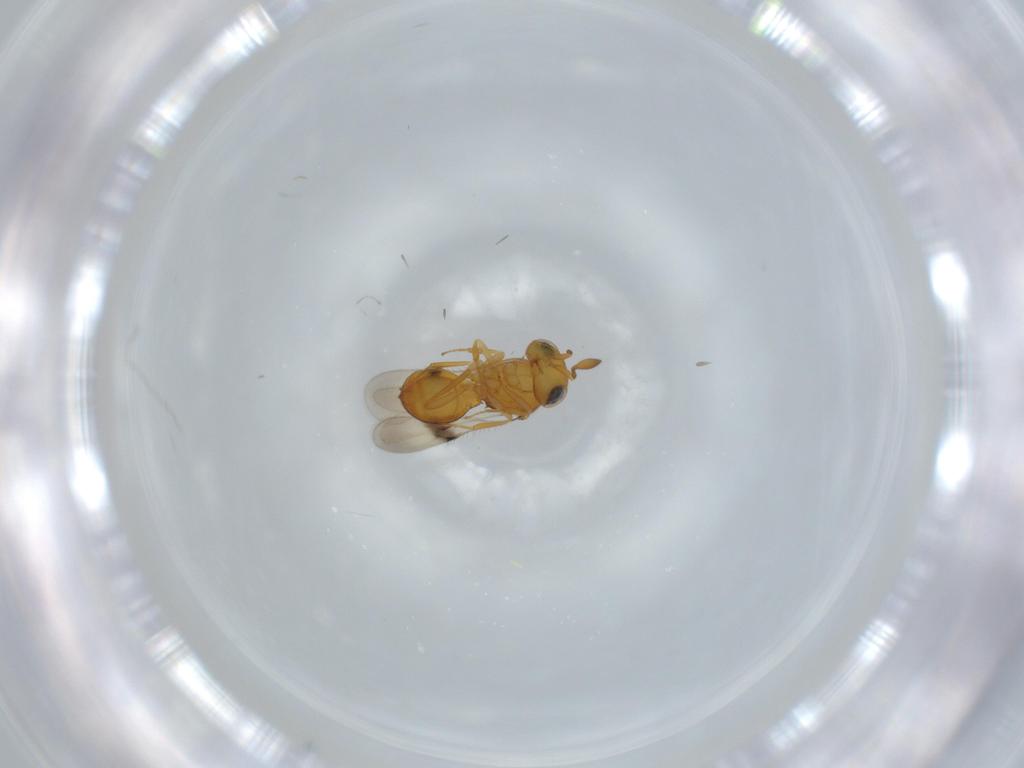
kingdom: Animalia
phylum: Arthropoda
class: Insecta
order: Hymenoptera
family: Scelionidae
